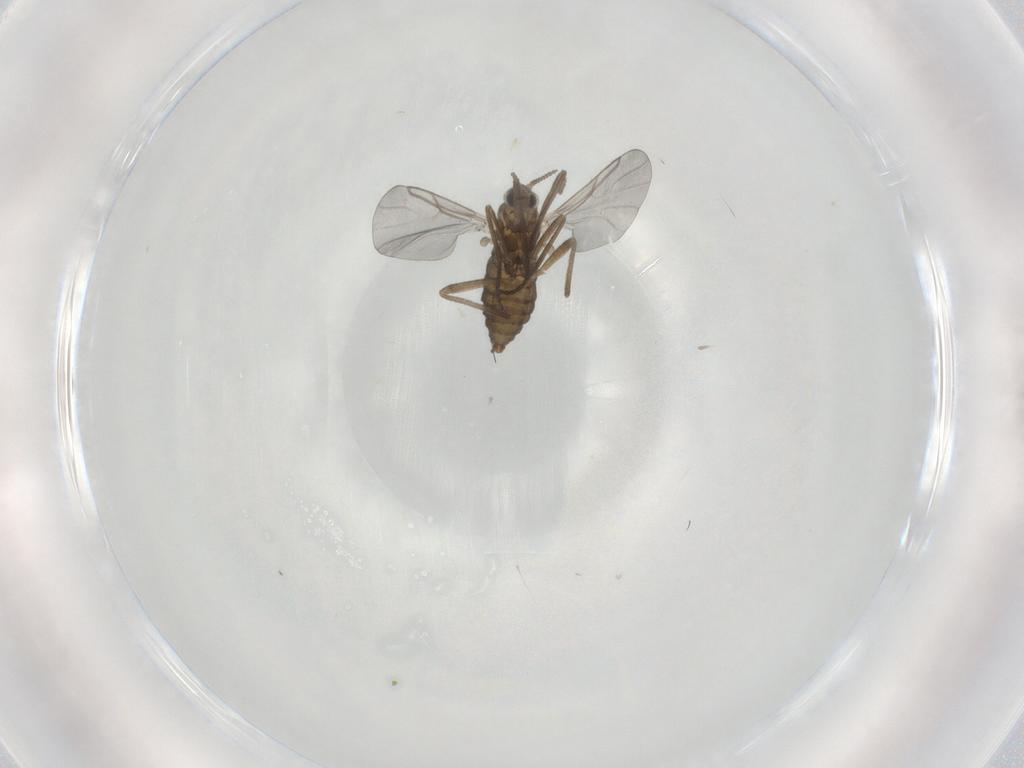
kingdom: Animalia
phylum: Arthropoda
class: Insecta
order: Diptera
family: Cecidomyiidae
